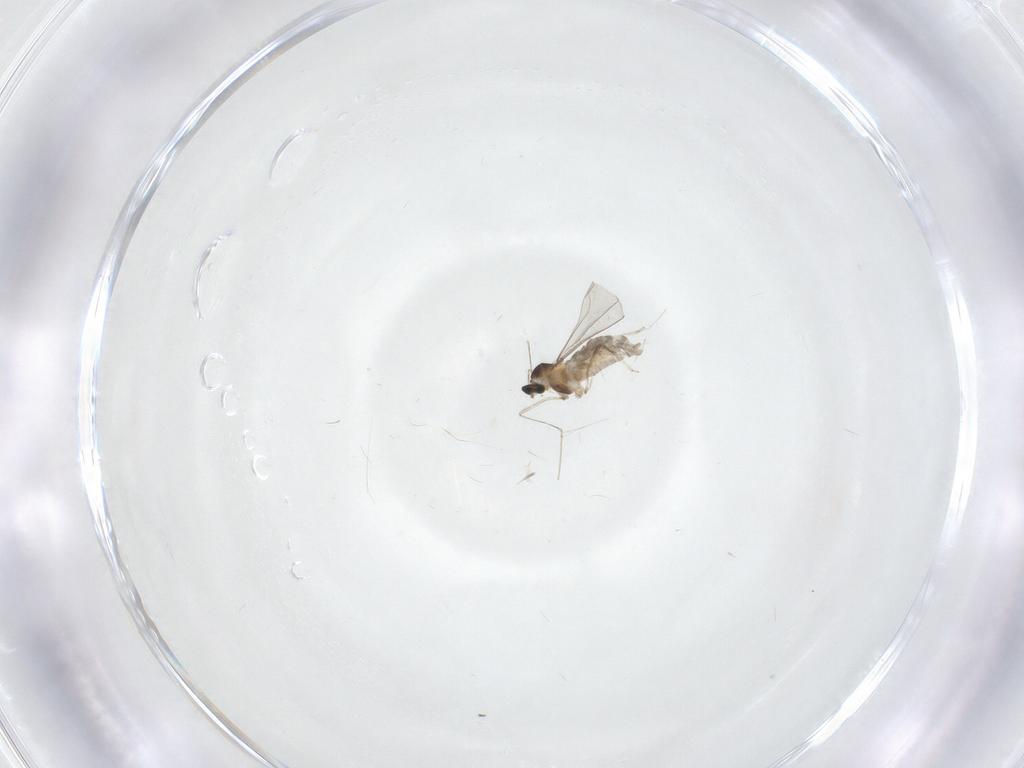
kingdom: Animalia
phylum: Arthropoda
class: Insecta
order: Diptera
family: Cecidomyiidae
